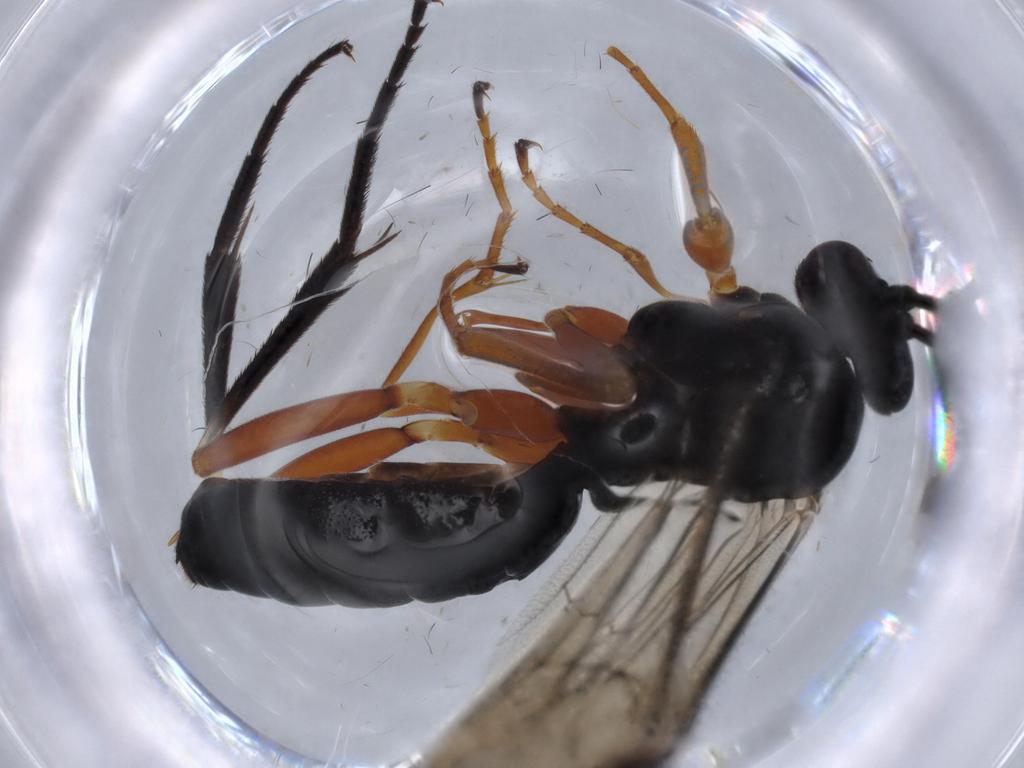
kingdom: Animalia
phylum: Arthropoda
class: Insecta
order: Hymenoptera
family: Ichneumonidae
